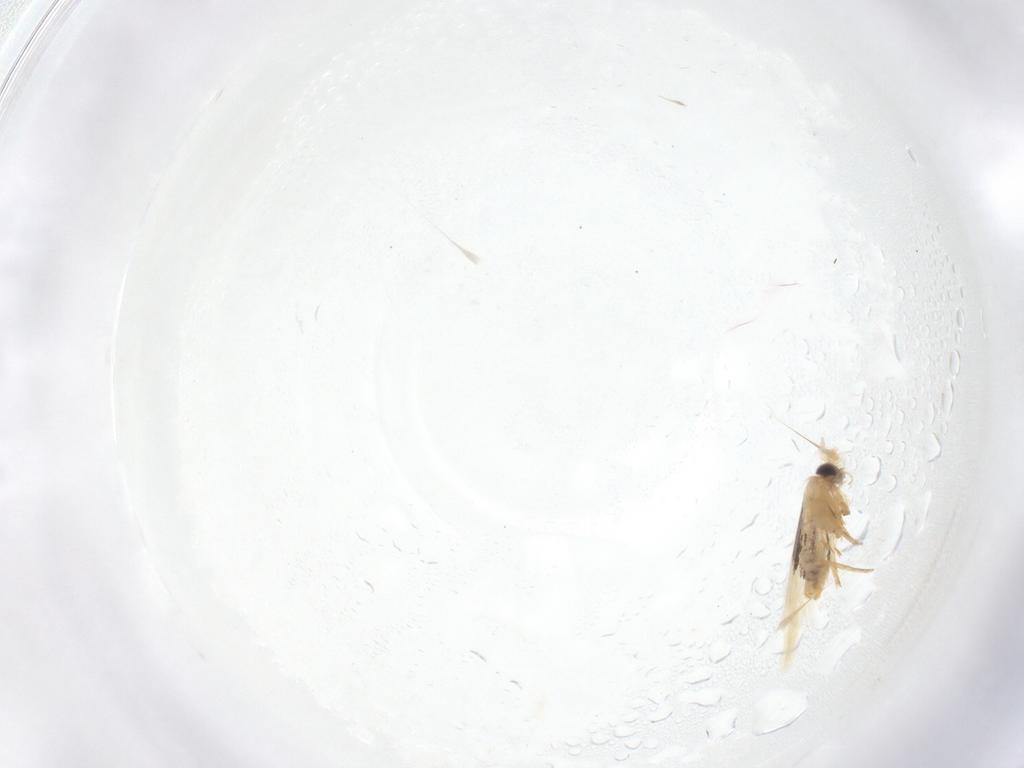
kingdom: Animalia
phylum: Arthropoda
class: Insecta
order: Lepidoptera
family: Nepticulidae
